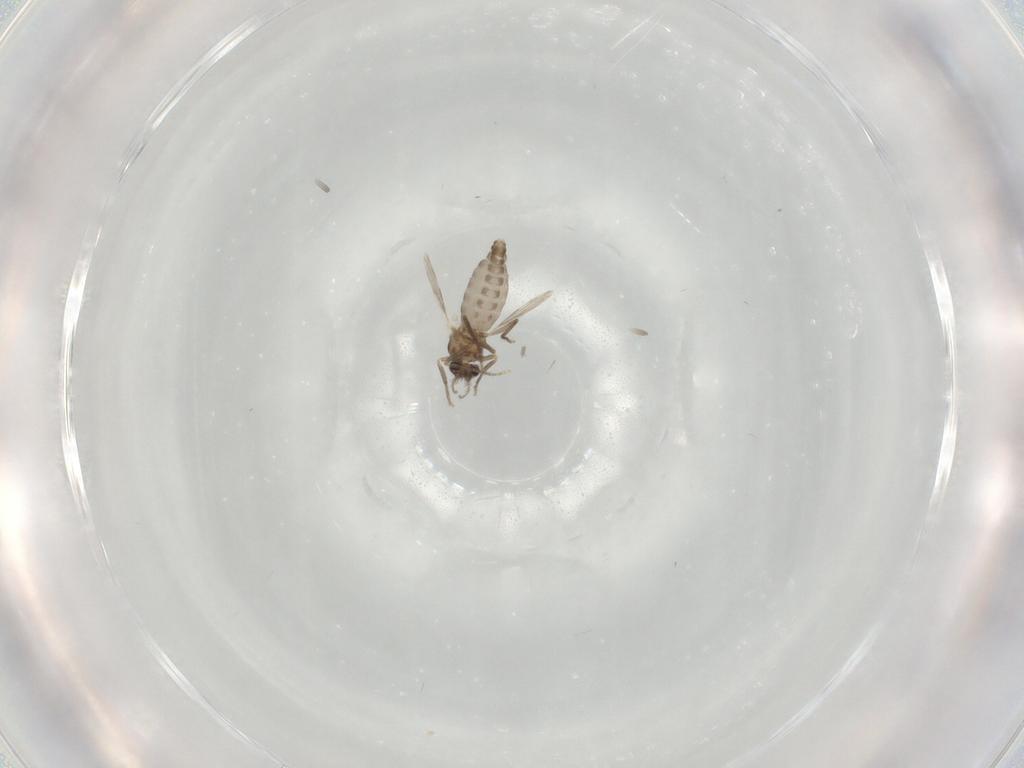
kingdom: Animalia
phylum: Arthropoda
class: Insecta
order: Diptera
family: Ceratopogonidae
